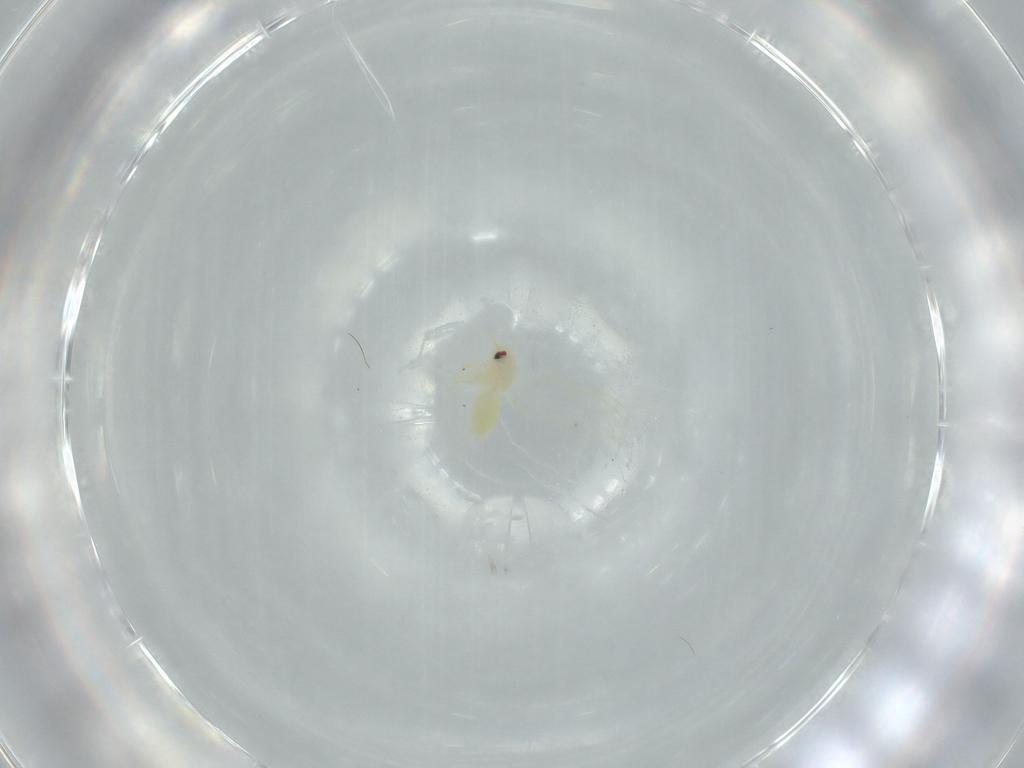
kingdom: Animalia
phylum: Arthropoda
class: Insecta
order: Hemiptera
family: Aleyrodidae
